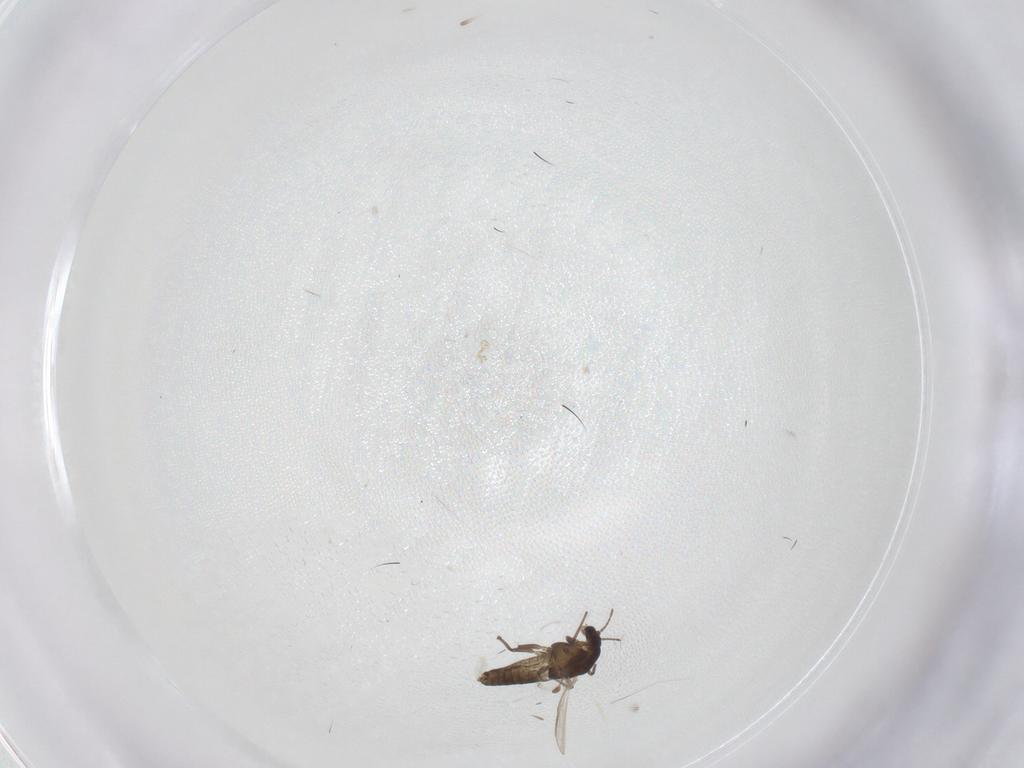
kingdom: Animalia
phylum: Arthropoda
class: Insecta
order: Diptera
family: Chironomidae
